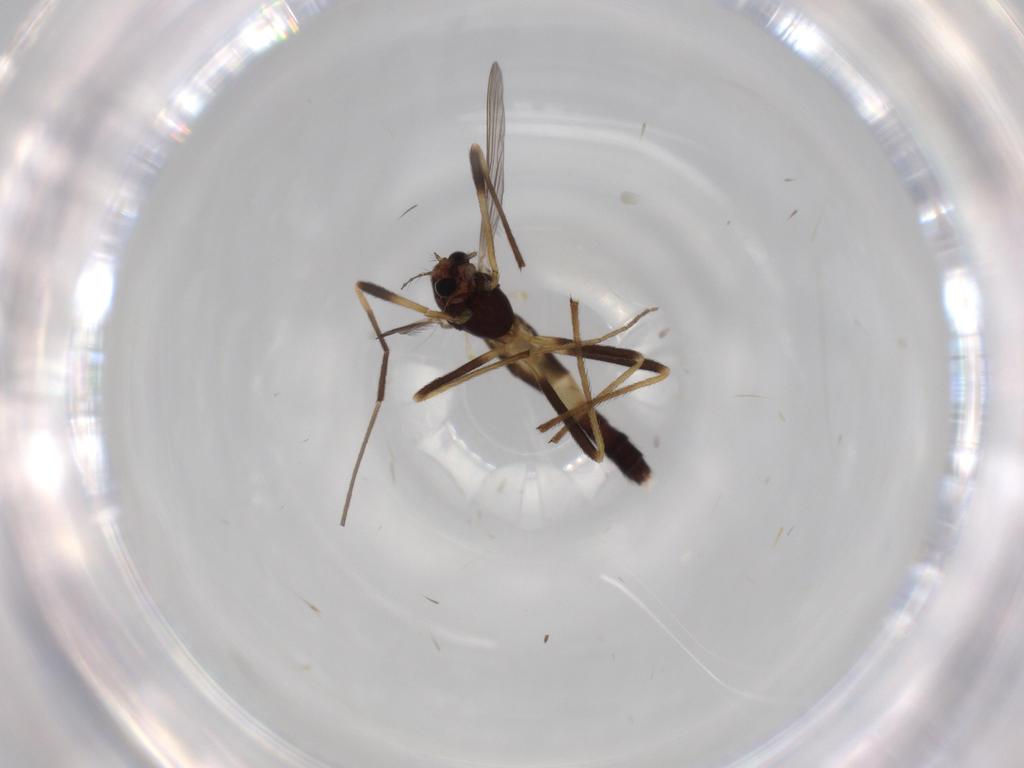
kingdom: Animalia
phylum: Arthropoda
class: Insecta
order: Diptera
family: Chironomidae
